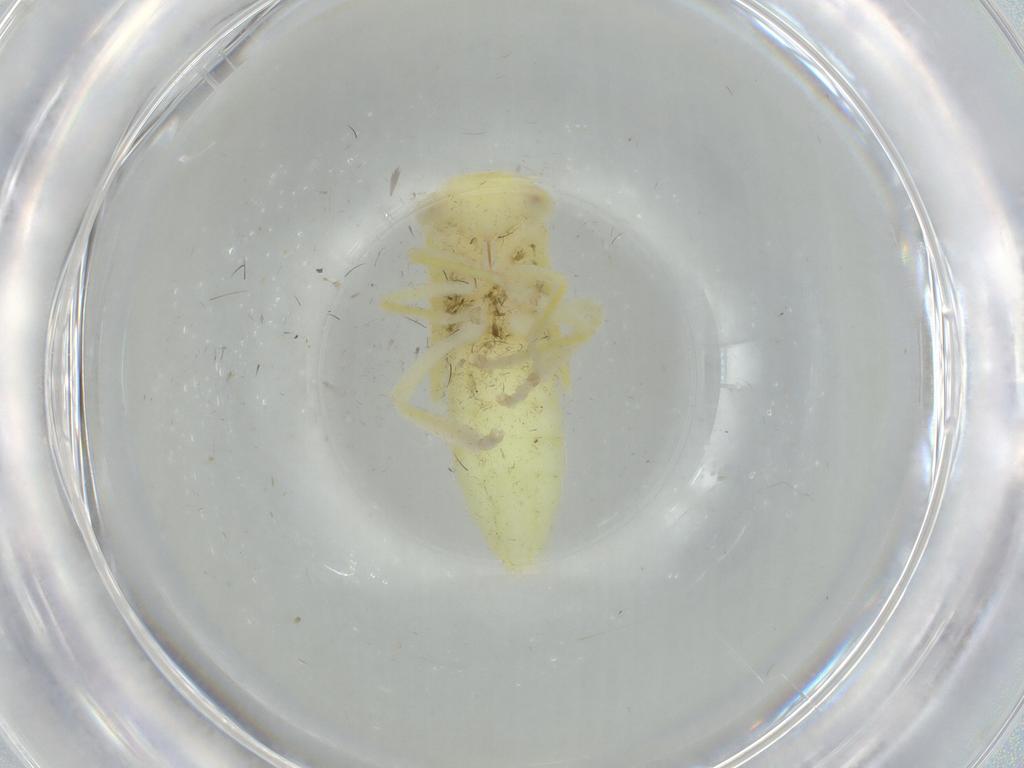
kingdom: Animalia
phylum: Arthropoda
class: Insecta
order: Hemiptera
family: Cicadellidae
